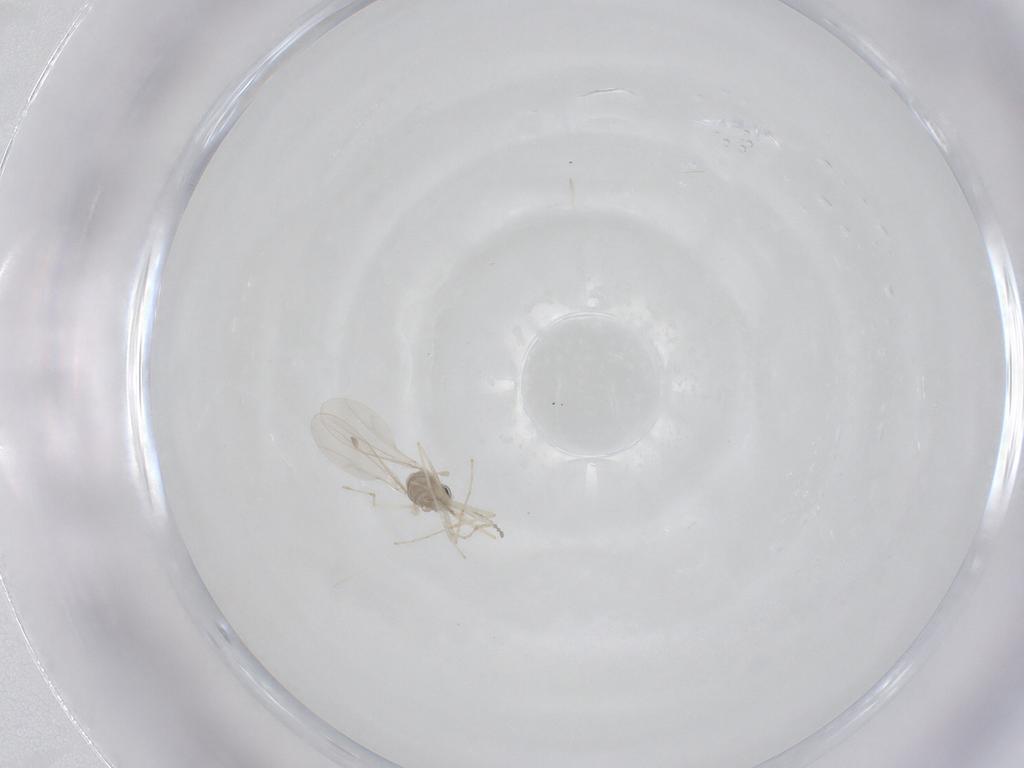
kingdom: Animalia
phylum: Arthropoda
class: Insecta
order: Diptera
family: Cecidomyiidae
